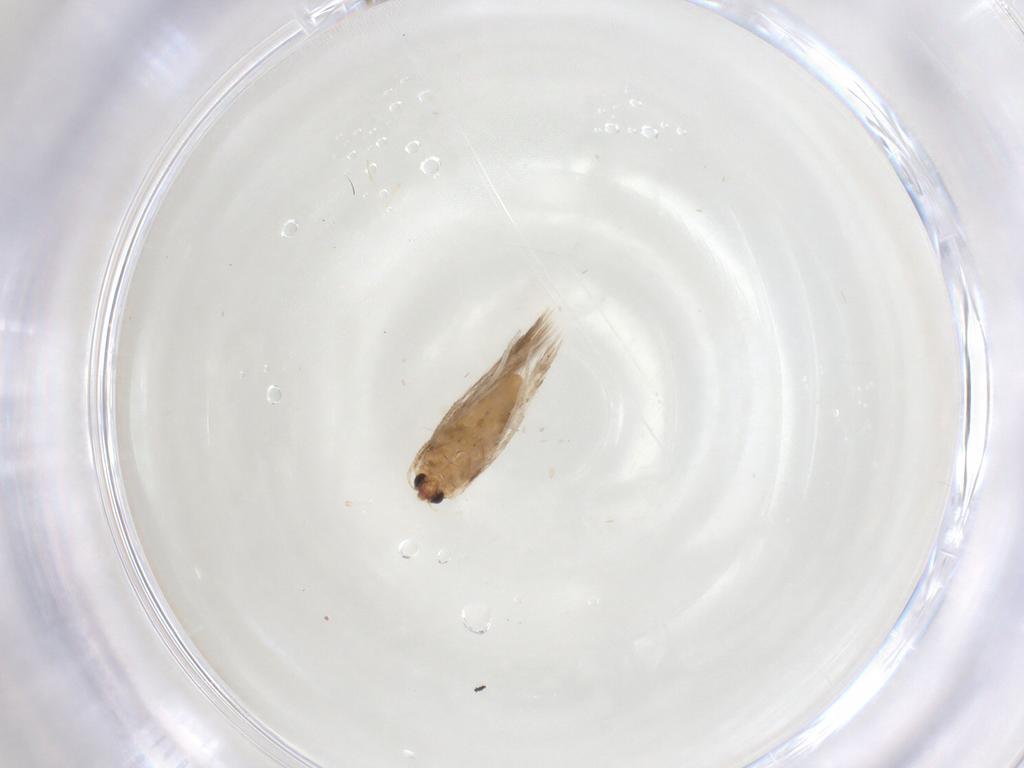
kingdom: Animalia
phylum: Arthropoda
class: Insecta
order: Lepidoptera
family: Nepticulidae
